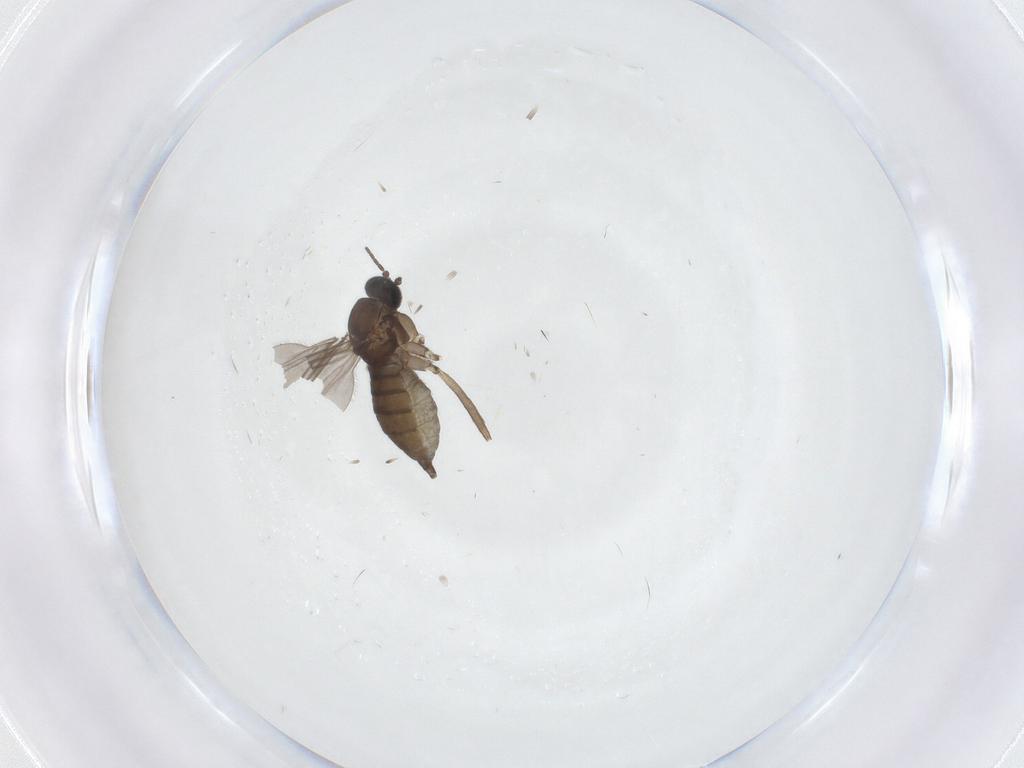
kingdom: Animalia
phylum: Arthropoda
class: Insecta
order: Diptera
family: Sciaridae
